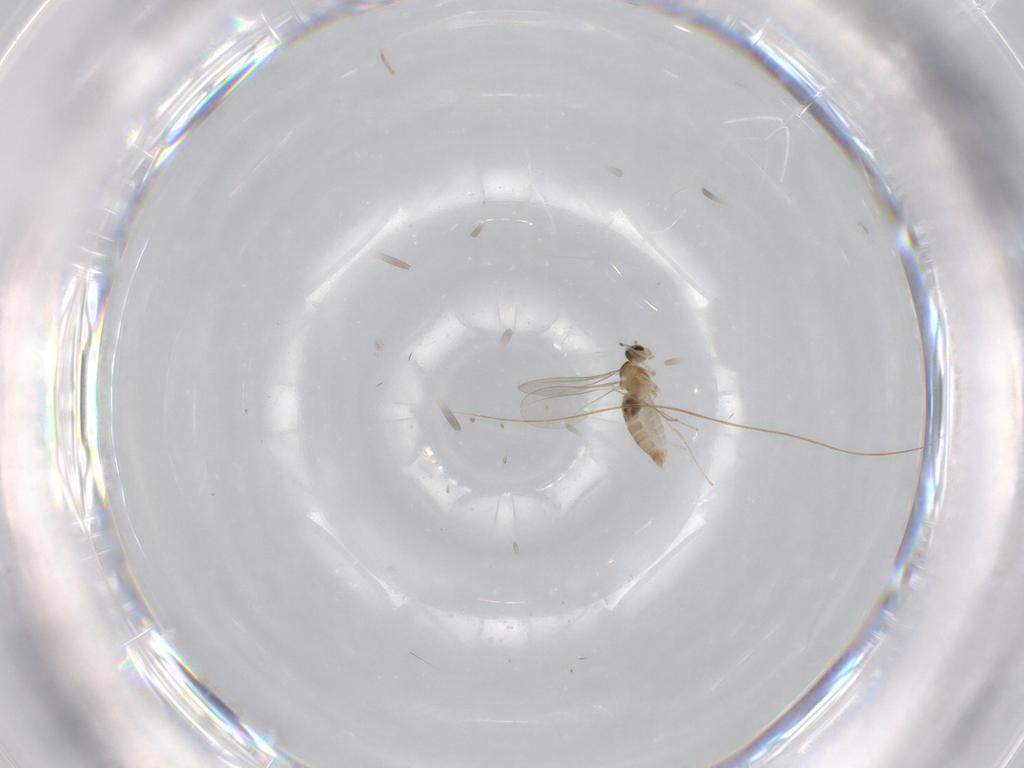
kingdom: Animalia
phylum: Arthropoda
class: Insecta
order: Diptera
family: Cecidomyiidae
